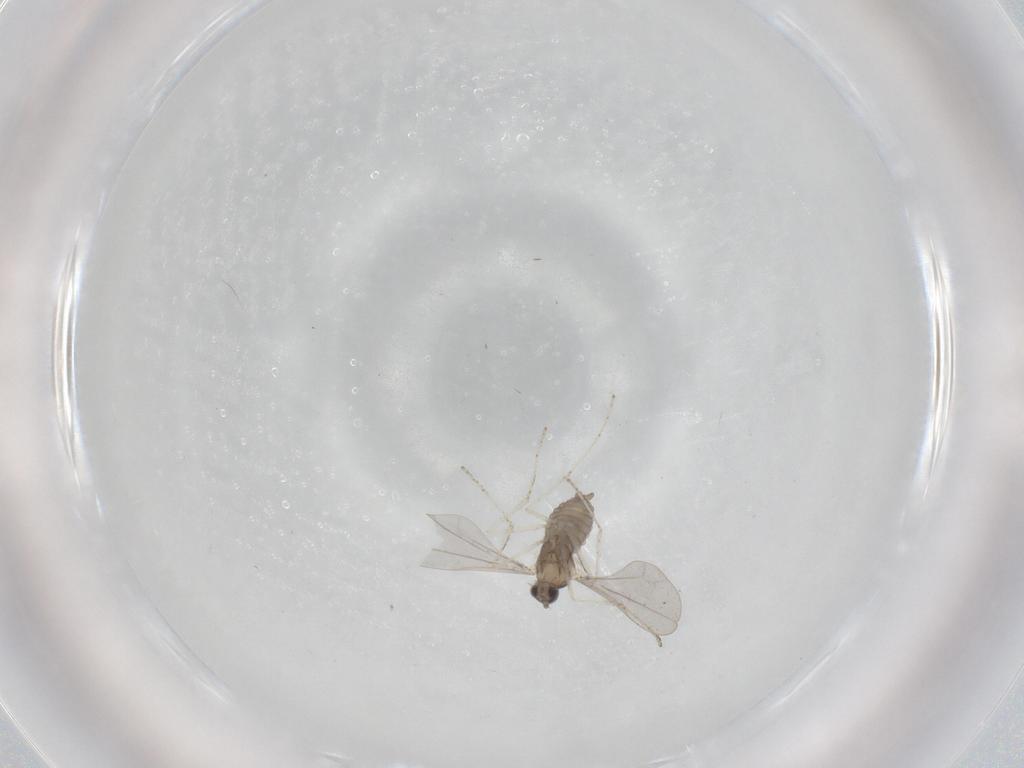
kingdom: Animalia
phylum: Arthropoda
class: Insecta
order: Diptera
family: Cecidomyiidae
